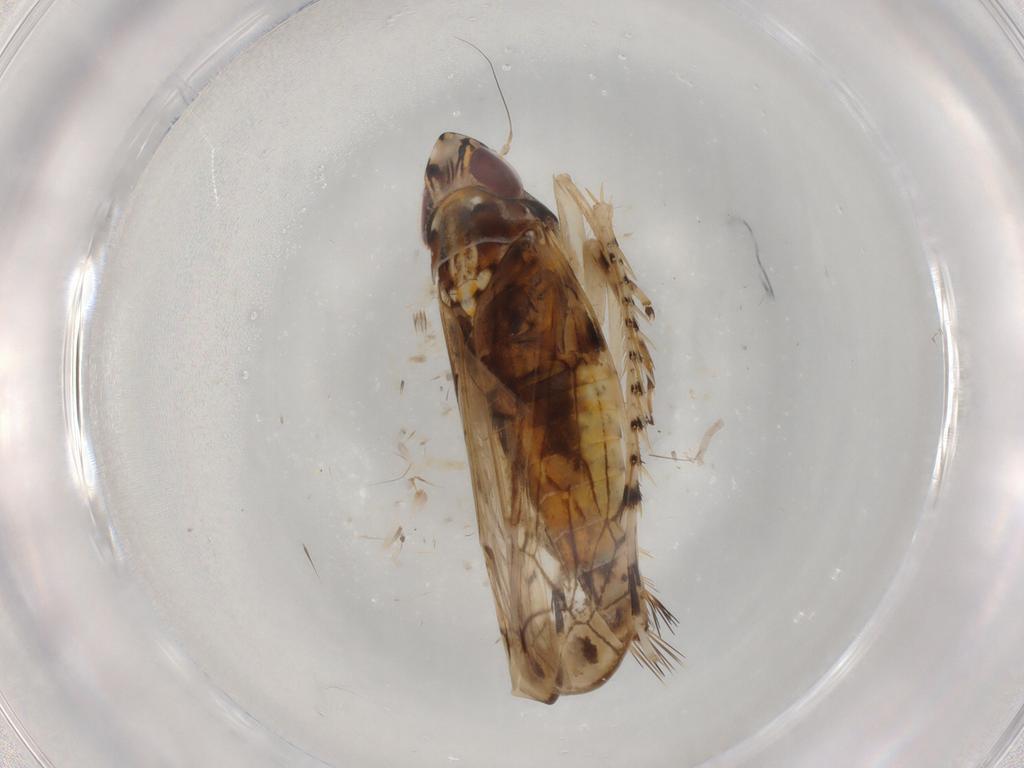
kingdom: Animalia
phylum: Arthropoda
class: Insecta
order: Hemiptera
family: Cicadellidae
